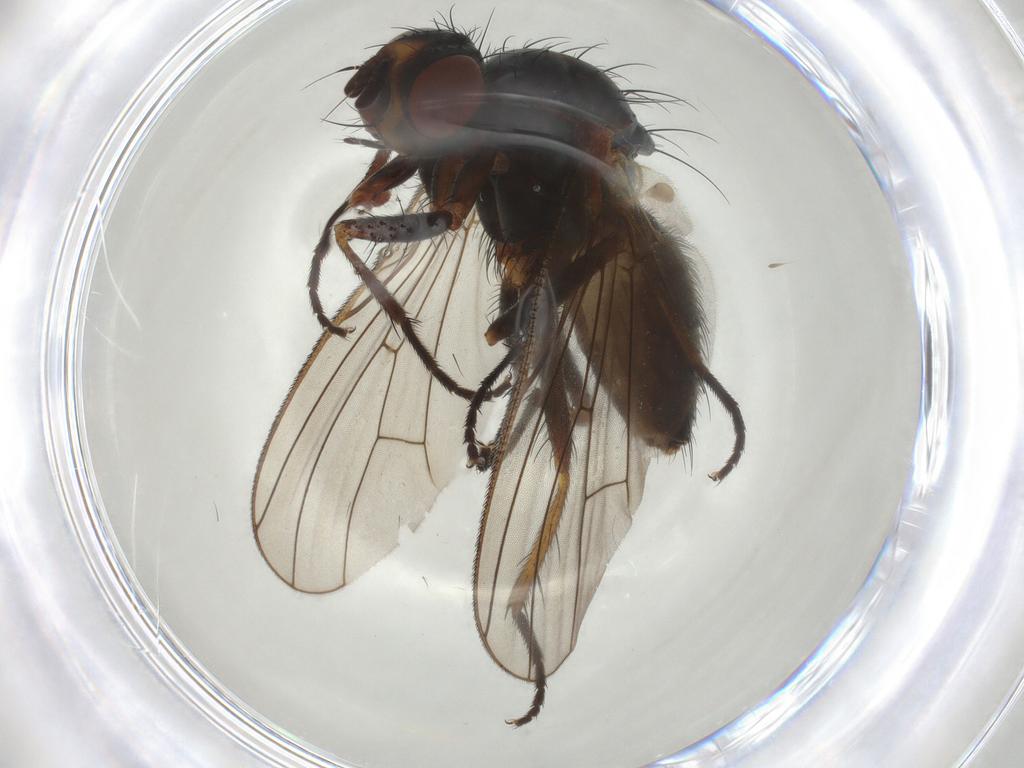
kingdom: Animalia
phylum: Arthropoda
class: Insecta
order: Diptera
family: Anthomyiidae
